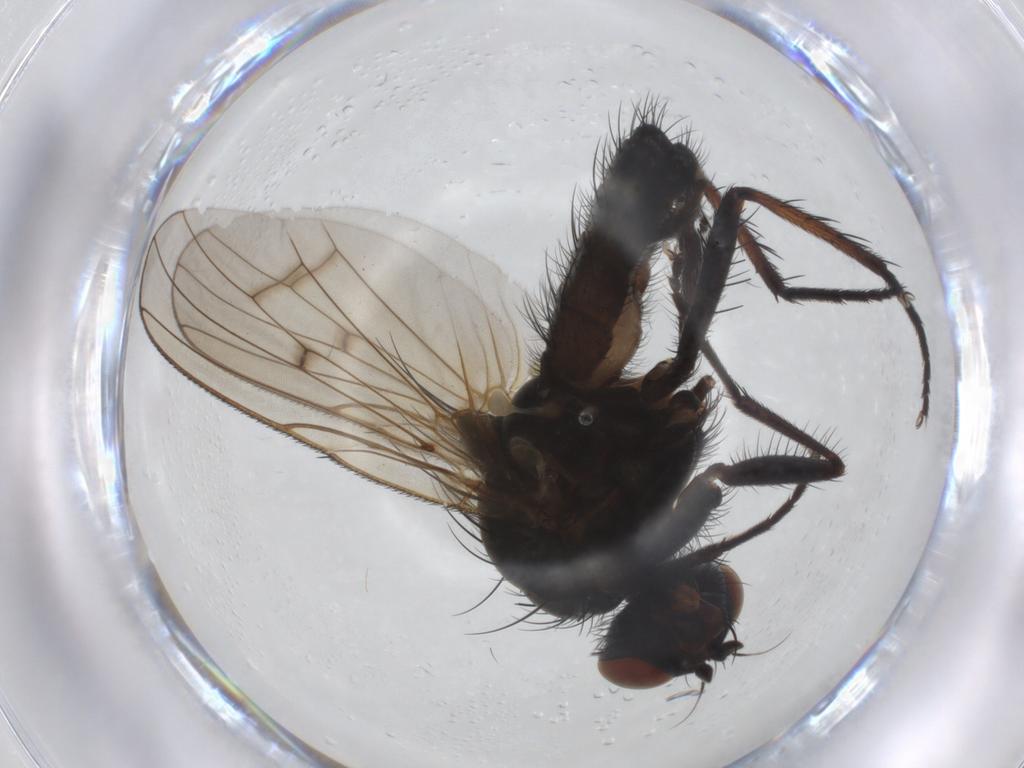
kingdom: Animalia
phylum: Arthropoda
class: Insecta
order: Diptera
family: Anthomyiidae
